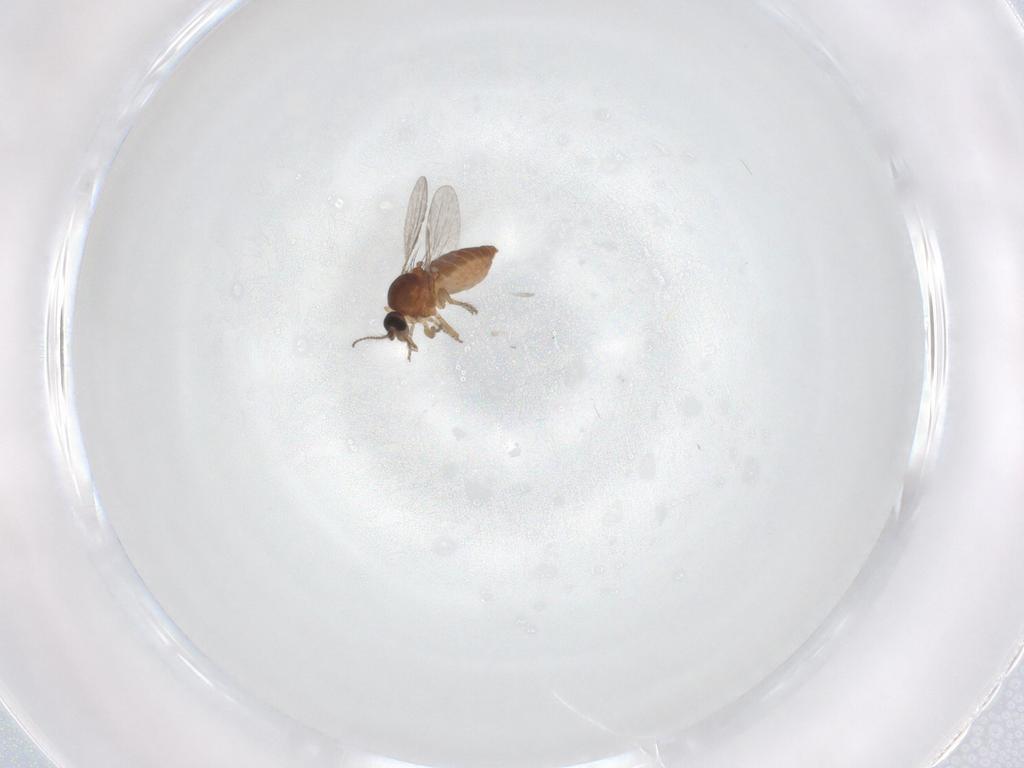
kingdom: Animalia
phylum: Arthropoda
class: Insecta
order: Diptera
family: Ceratopogonidae
